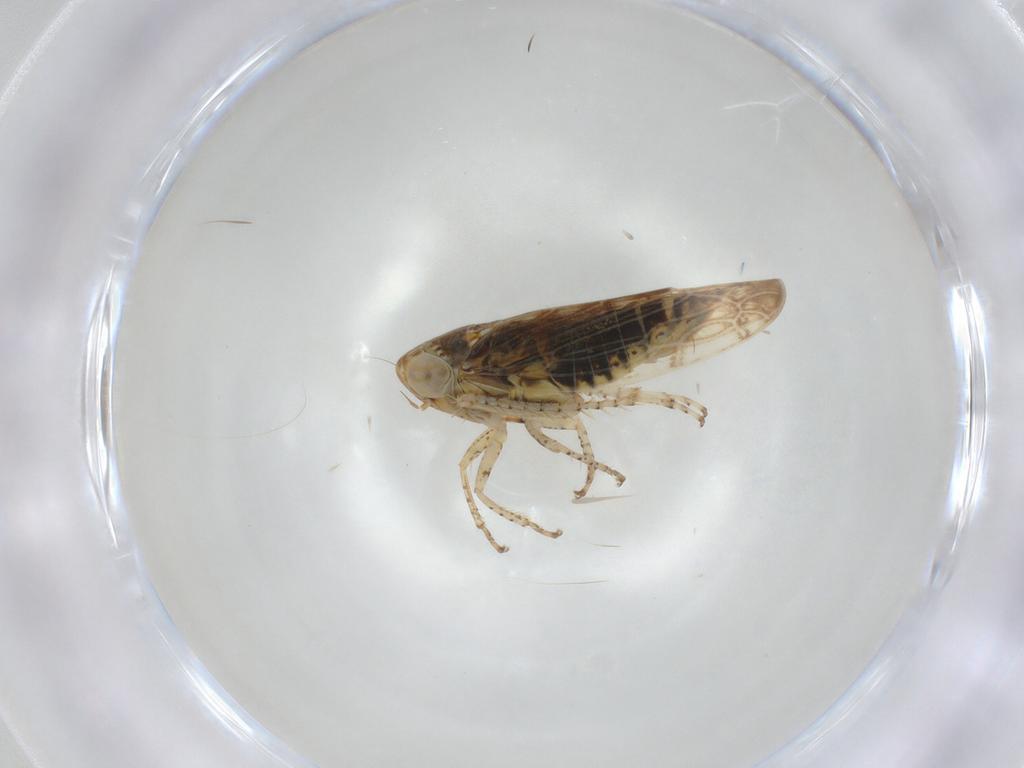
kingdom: Animalia
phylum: Arthropoda
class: Insecta
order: Hemiptera
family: Cicadellidae
